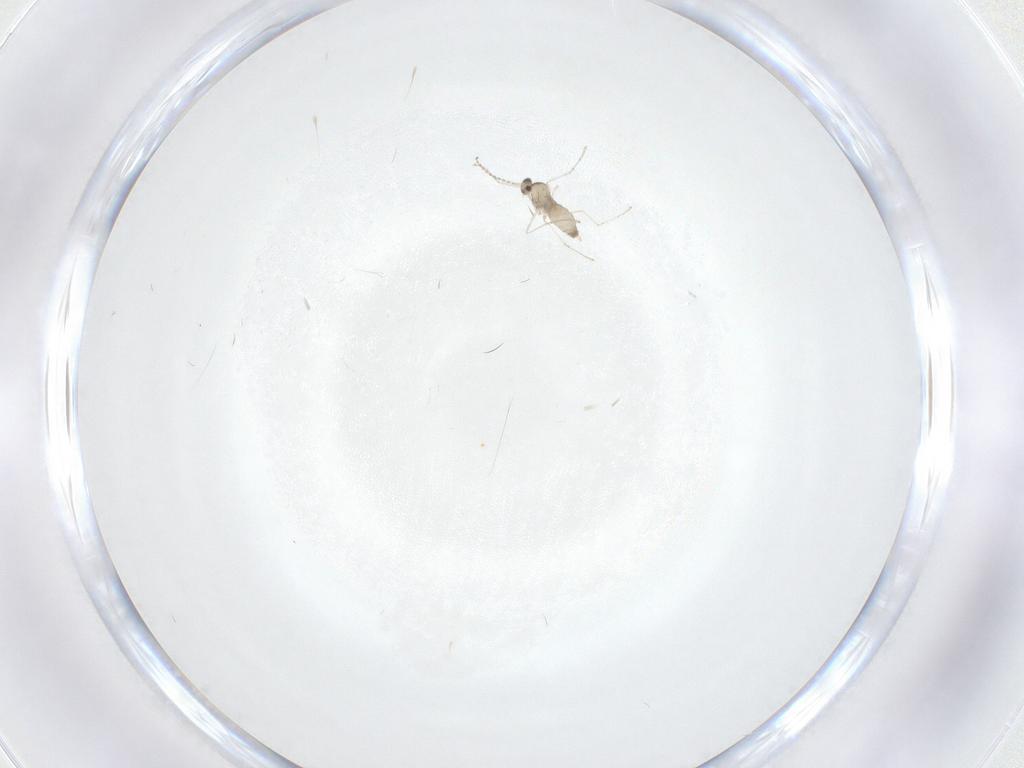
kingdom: Animalia
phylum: Arthropoda
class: Insecta
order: Diptera
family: Cecidomyiidae
